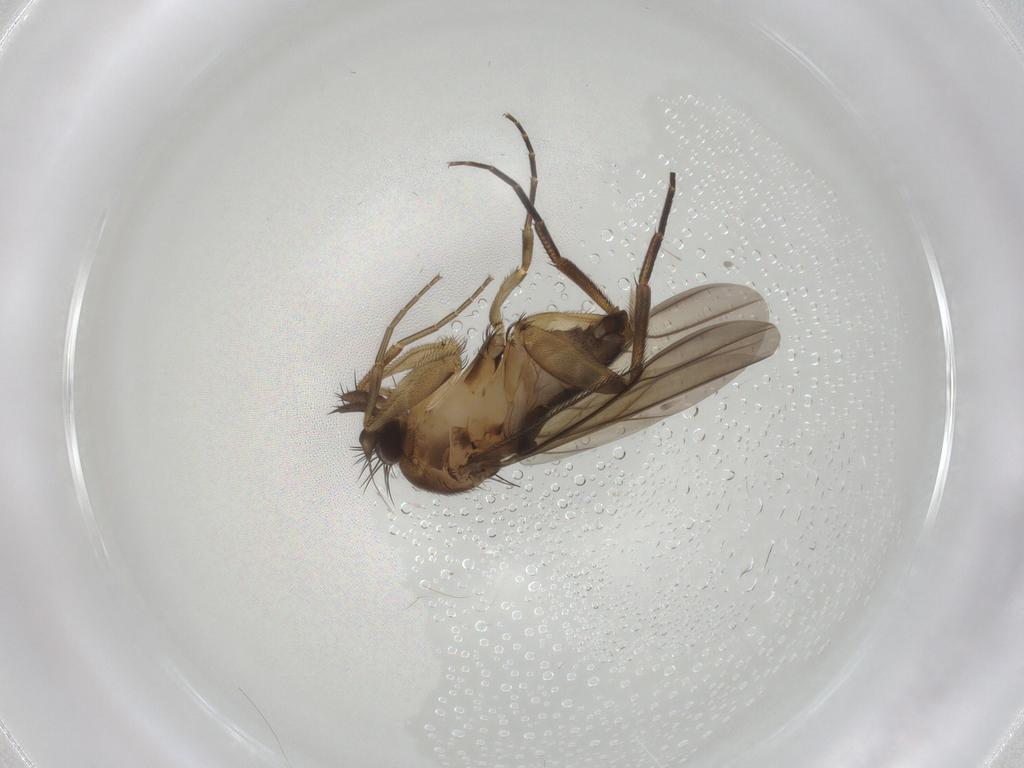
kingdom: Animalia
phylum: Arthropoda
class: Insecta
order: Diptera
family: Phoridae
